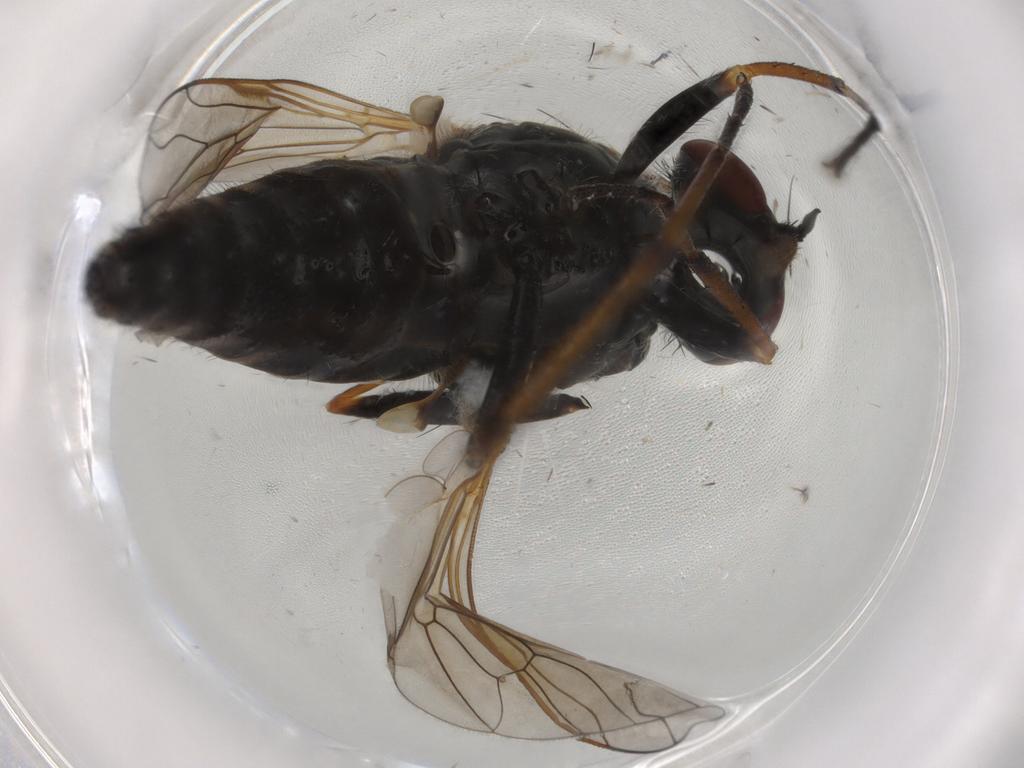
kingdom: Animalia
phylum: Arthropoda
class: Insecta
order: Diptera
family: Therevidae
